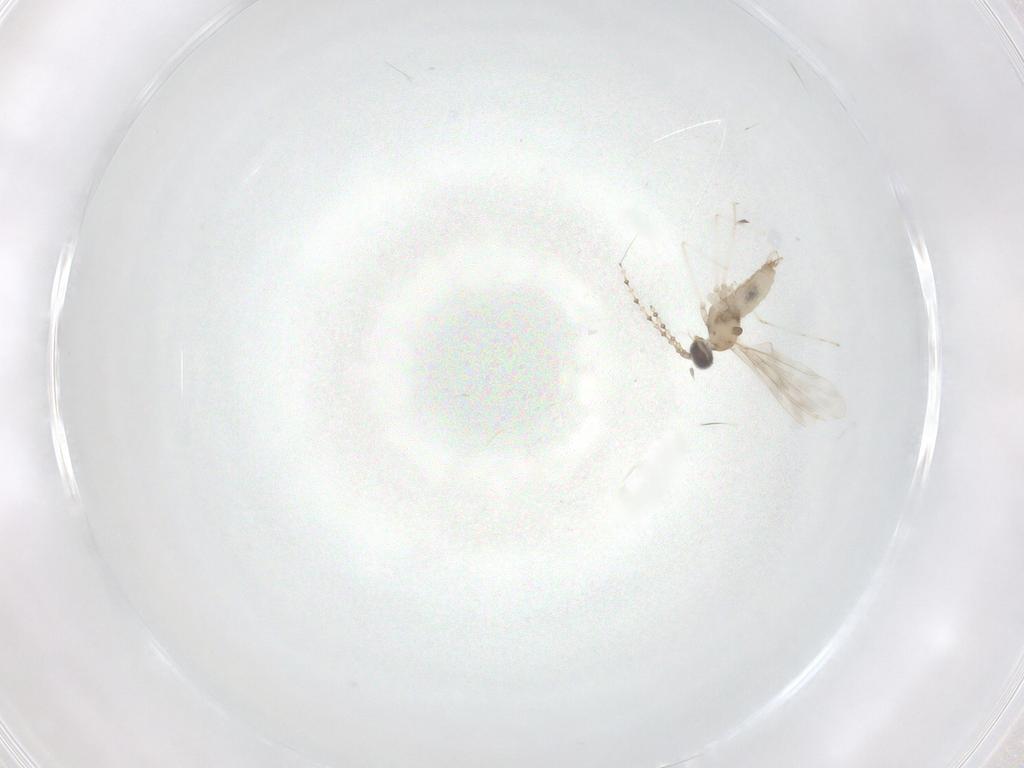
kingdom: Animalia
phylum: Arthropoda
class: Insecta
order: Diptera
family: Cecidomyiidae
